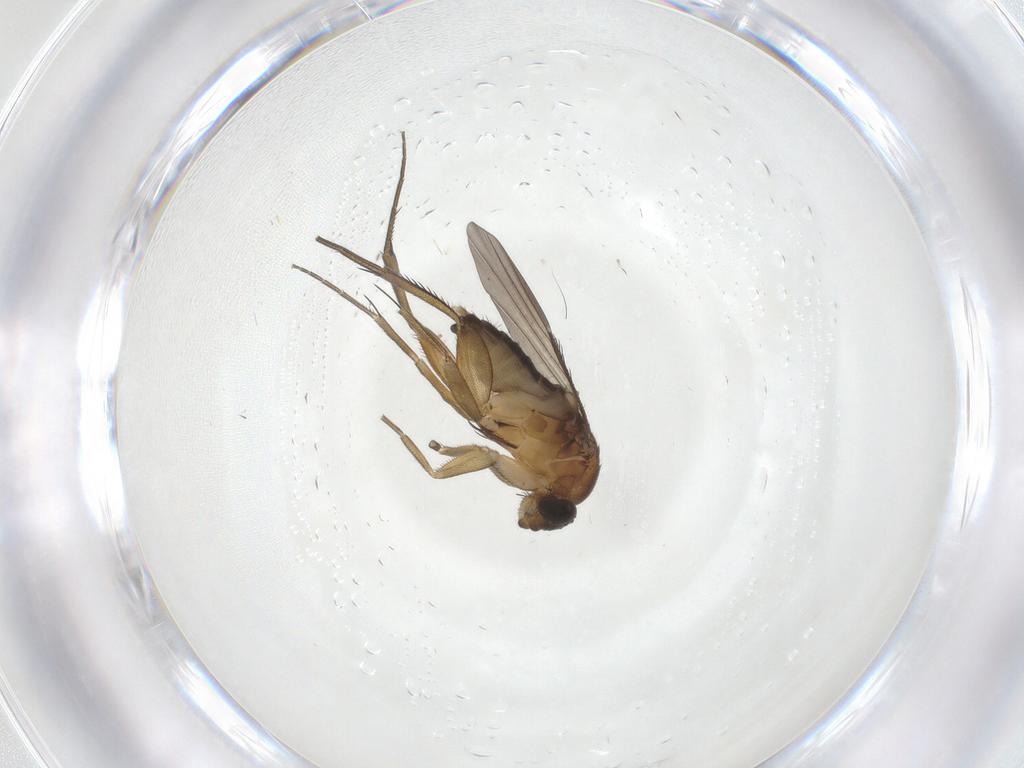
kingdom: Animalia
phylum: Arthropoda
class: Insecta
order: Diptera
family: Phoridae
